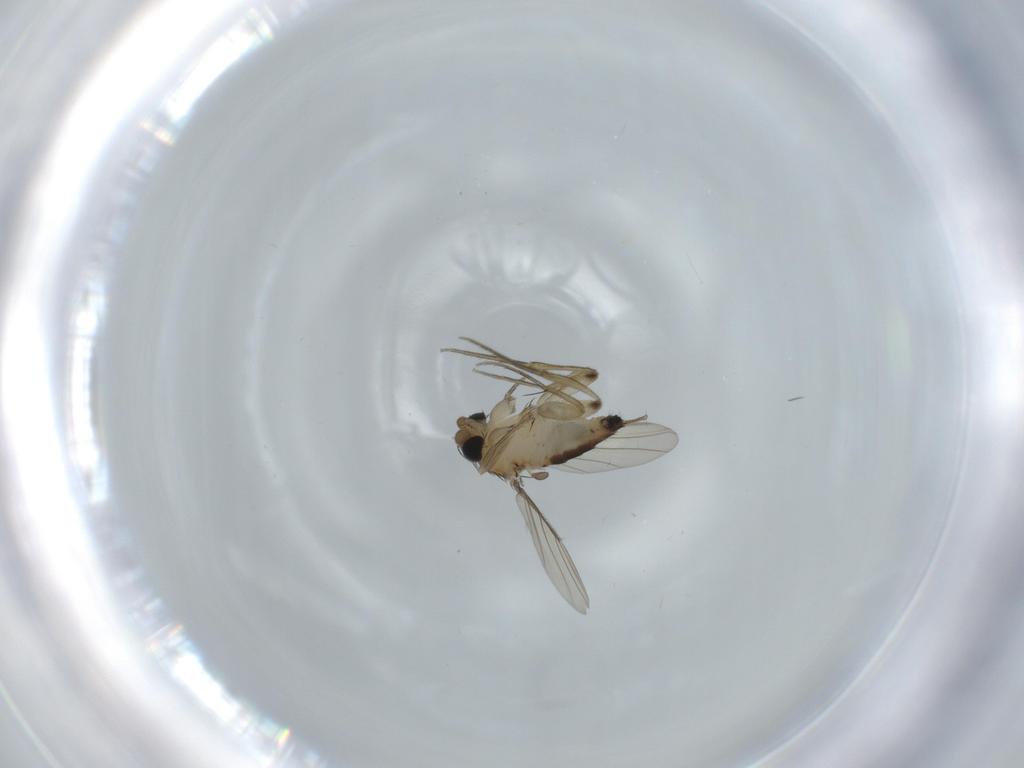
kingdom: Animalia
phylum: Arthropoda
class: Insecta
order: Diptera
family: Phoridae
